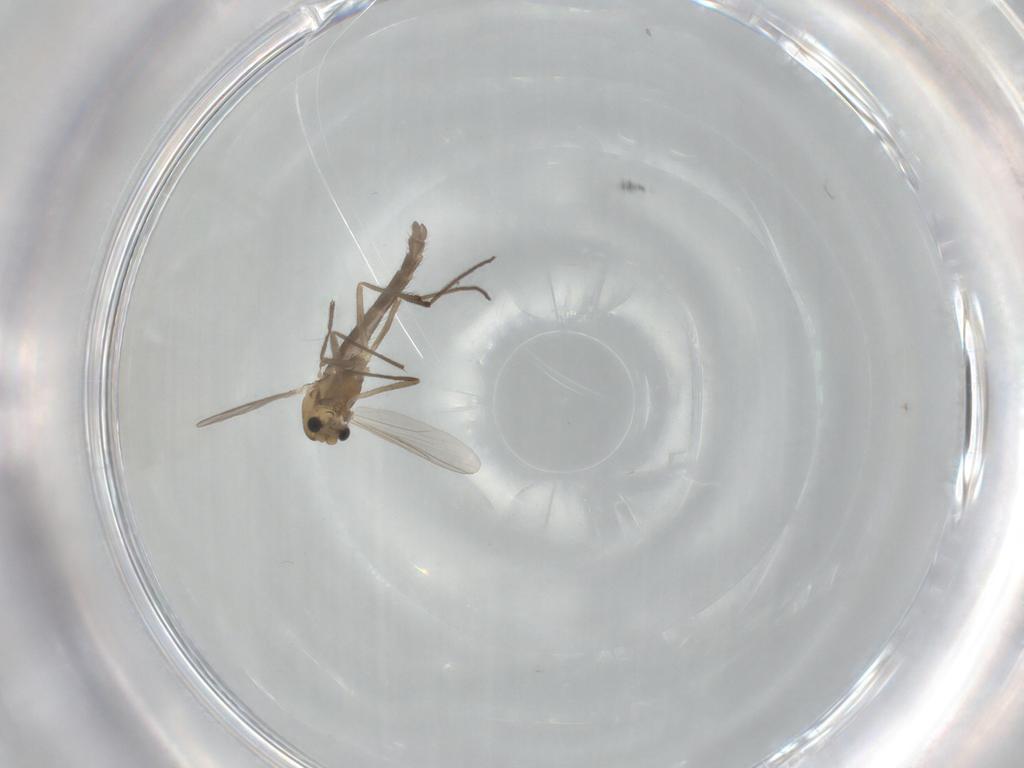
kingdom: Animalia
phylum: Arthropoda
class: Insecta
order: Diptera
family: Chironomidae
